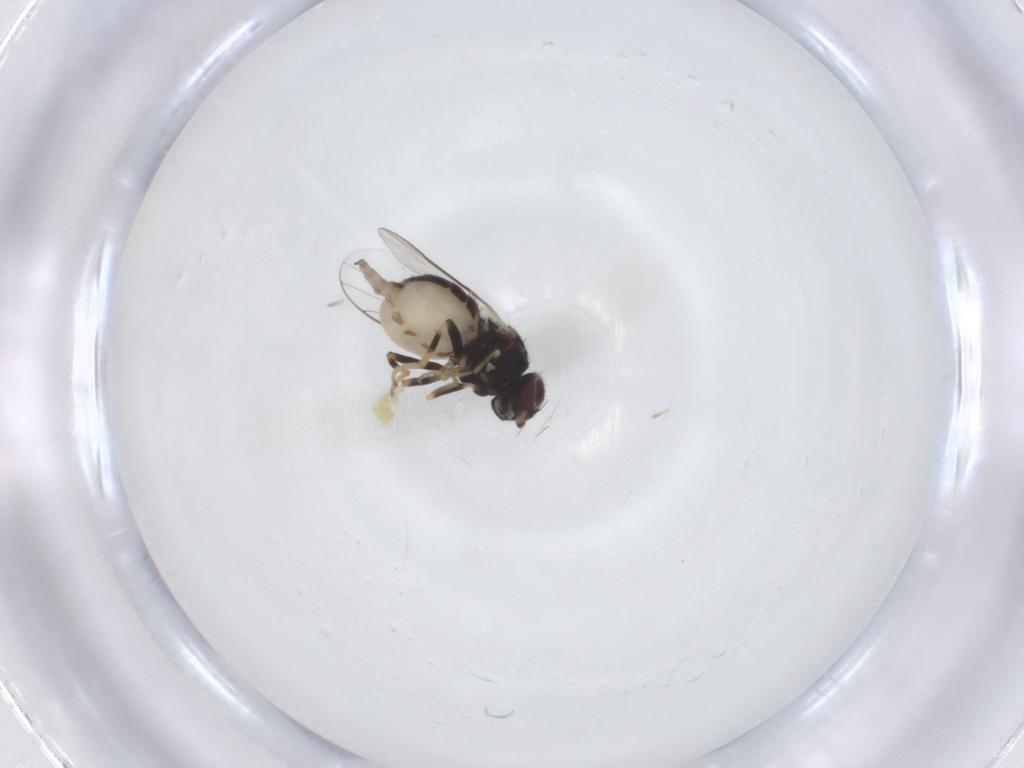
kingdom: Animalia
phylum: Arthropoda
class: Insecta
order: Diptera
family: Chloropidae
